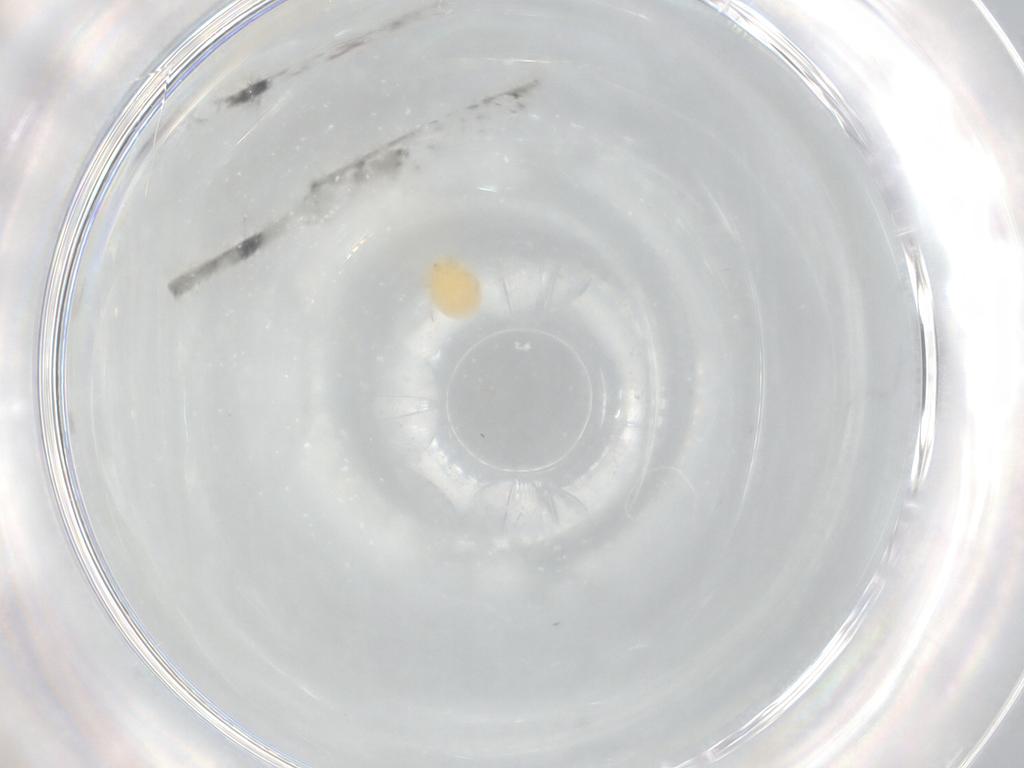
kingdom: Animalia
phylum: Arthropoda
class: Arachnida
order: Trombidiformes
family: Hydryphantidae
